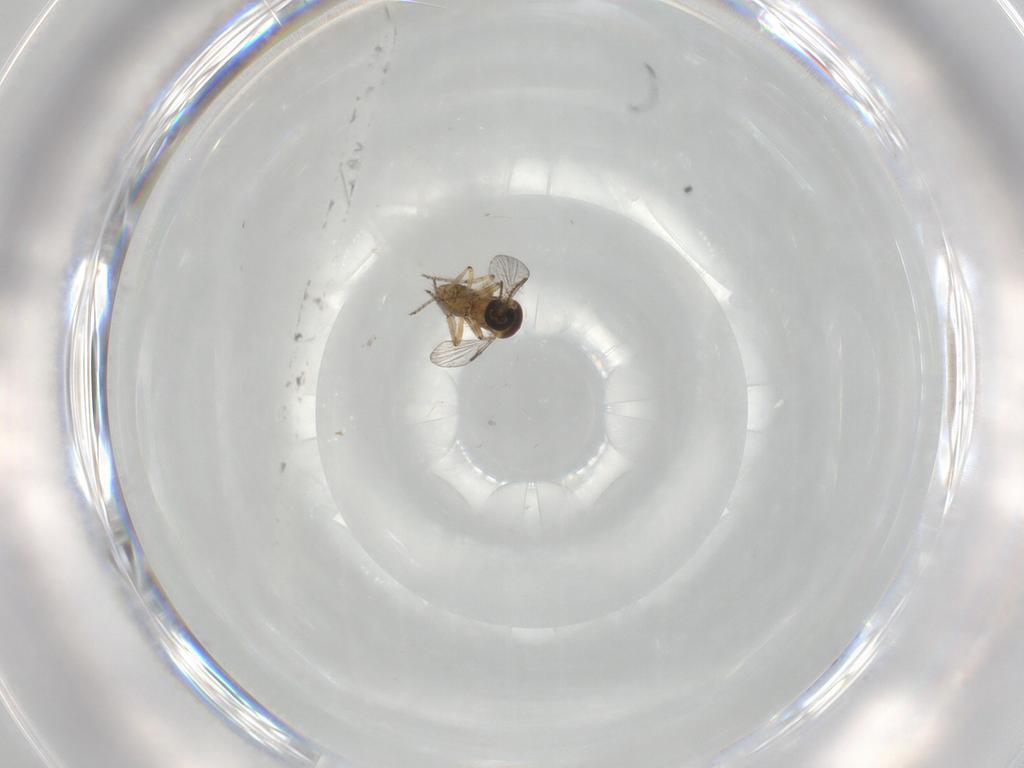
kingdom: Animalia
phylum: Arthropoda
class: Insecta
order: Diptera
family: Ceratopogonidae
